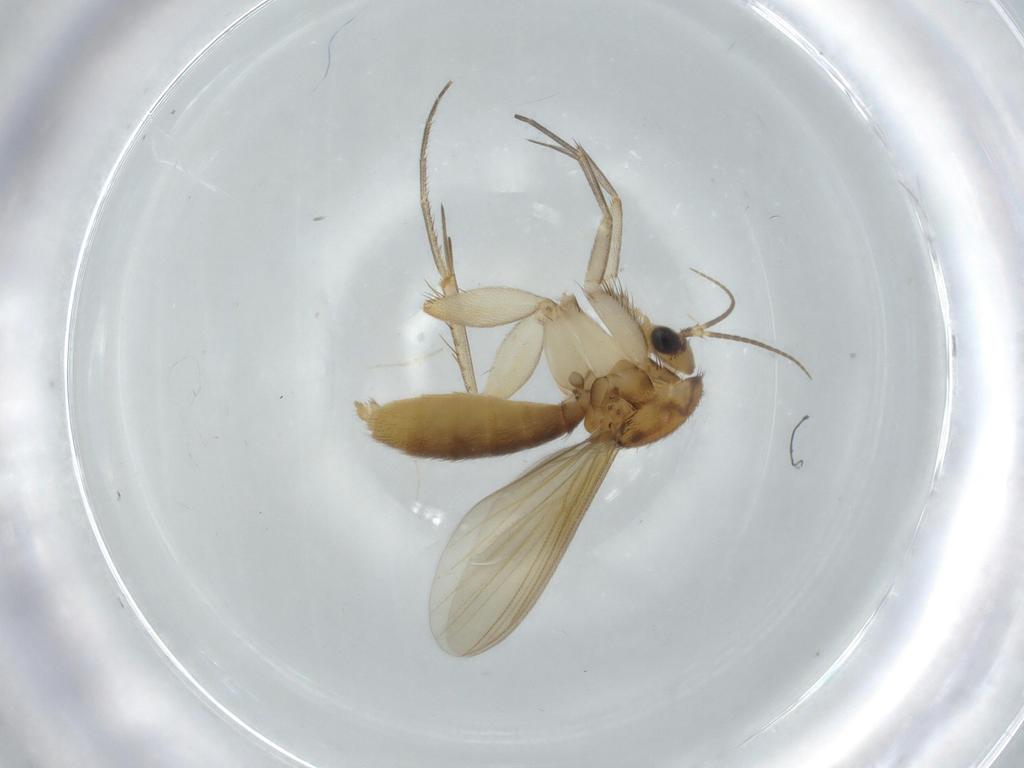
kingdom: Animalia
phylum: Arthropoda
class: Insecta
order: Diptera
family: Mycetophilidae
